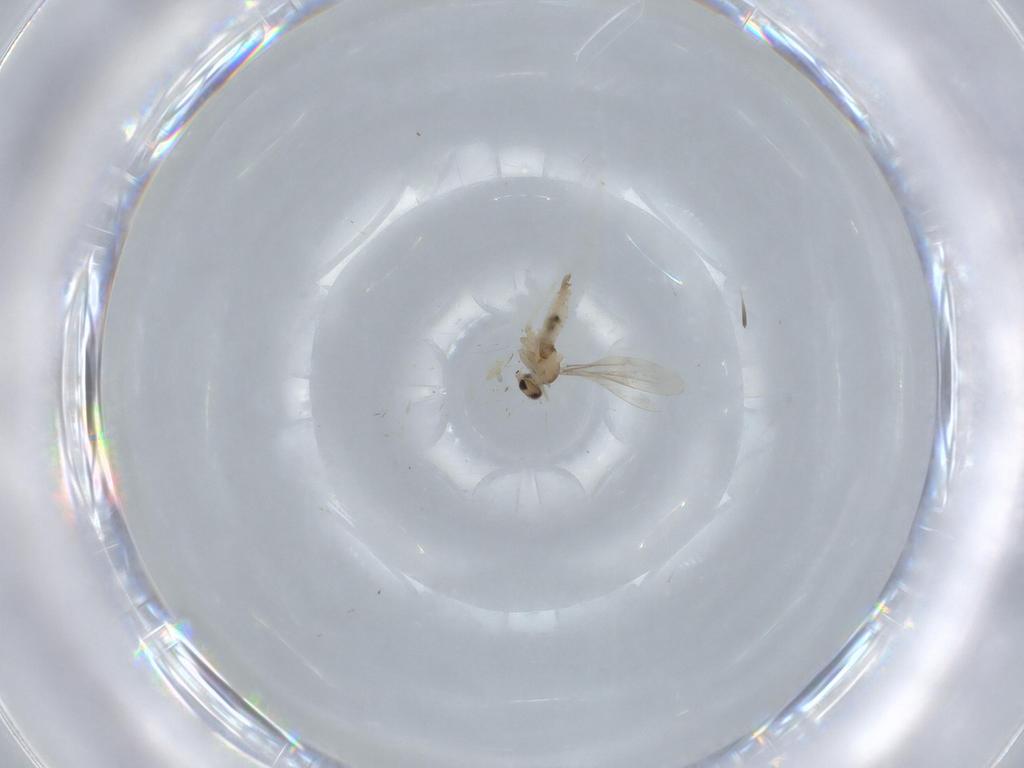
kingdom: Animalia
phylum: Arthropoda
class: Insecta
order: Diptera
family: Cecidomyiidae
